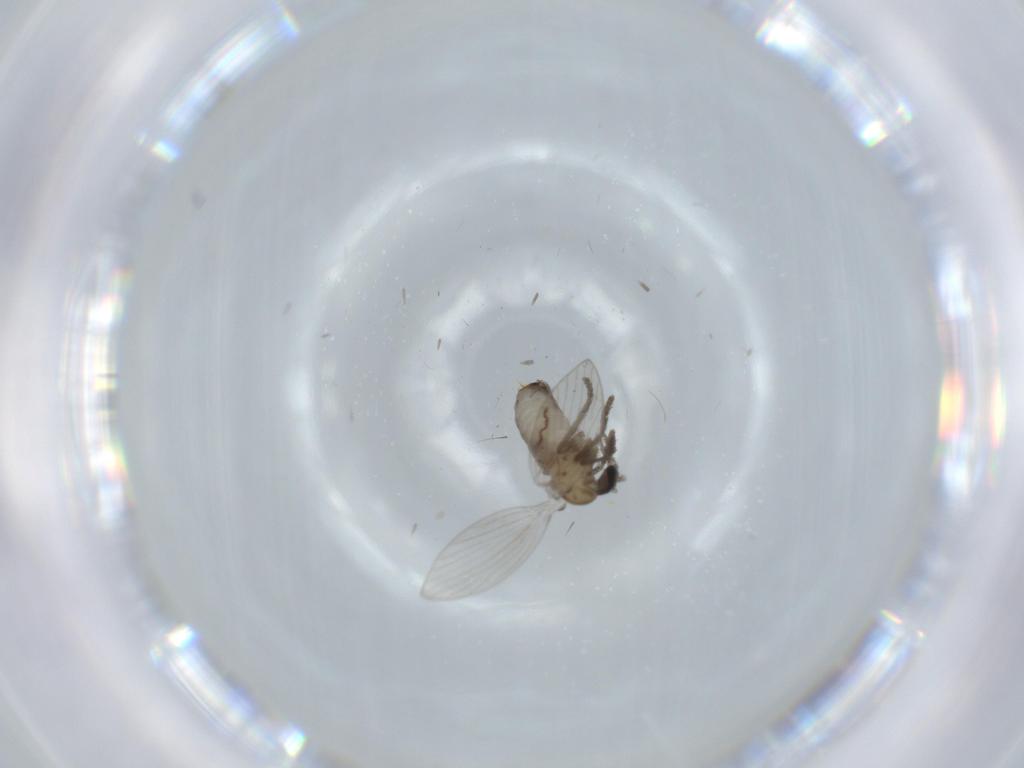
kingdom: Animalia
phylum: Arthropoda
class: Insecta
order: Diptera
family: Psychodidae
